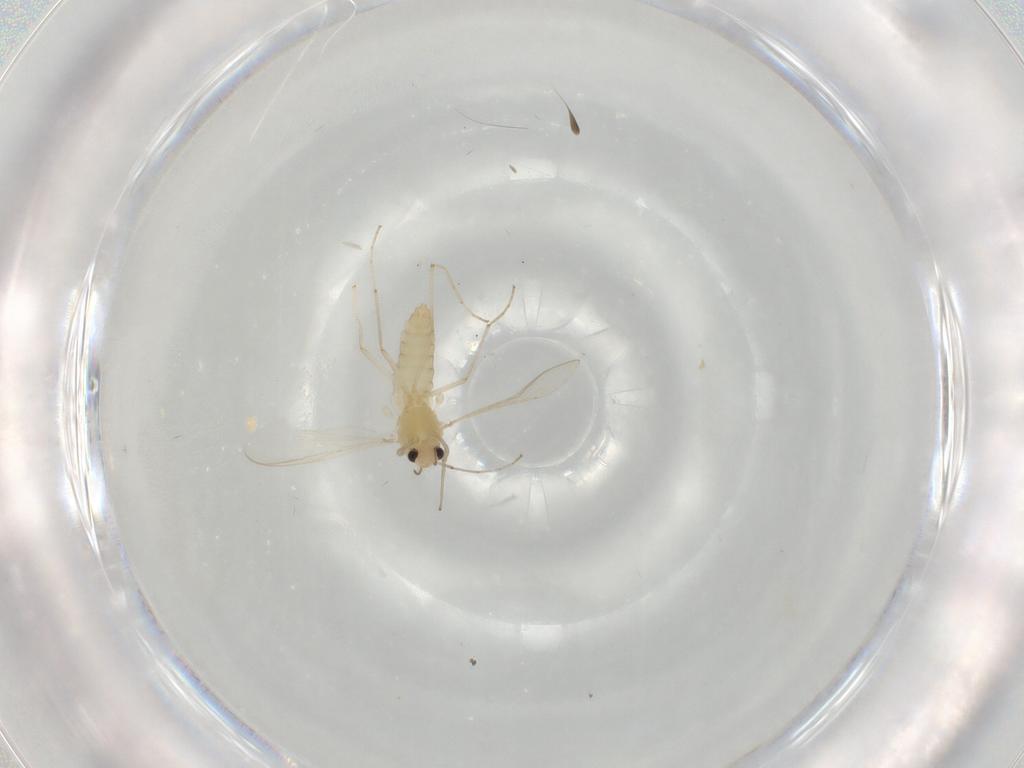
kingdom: Animalia
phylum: Arthropoda
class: Insecta
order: Diptera
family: Chironomidae
